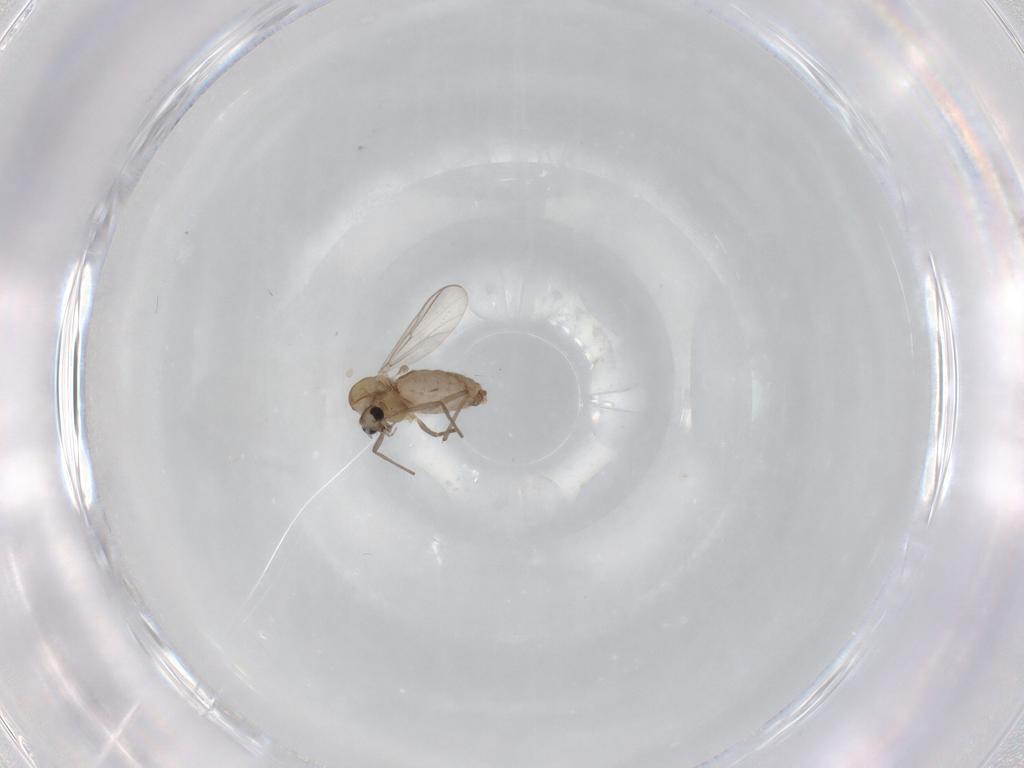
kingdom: Animalia
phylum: Arthropoda
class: Insecta
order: Diptera
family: Chironomidae
